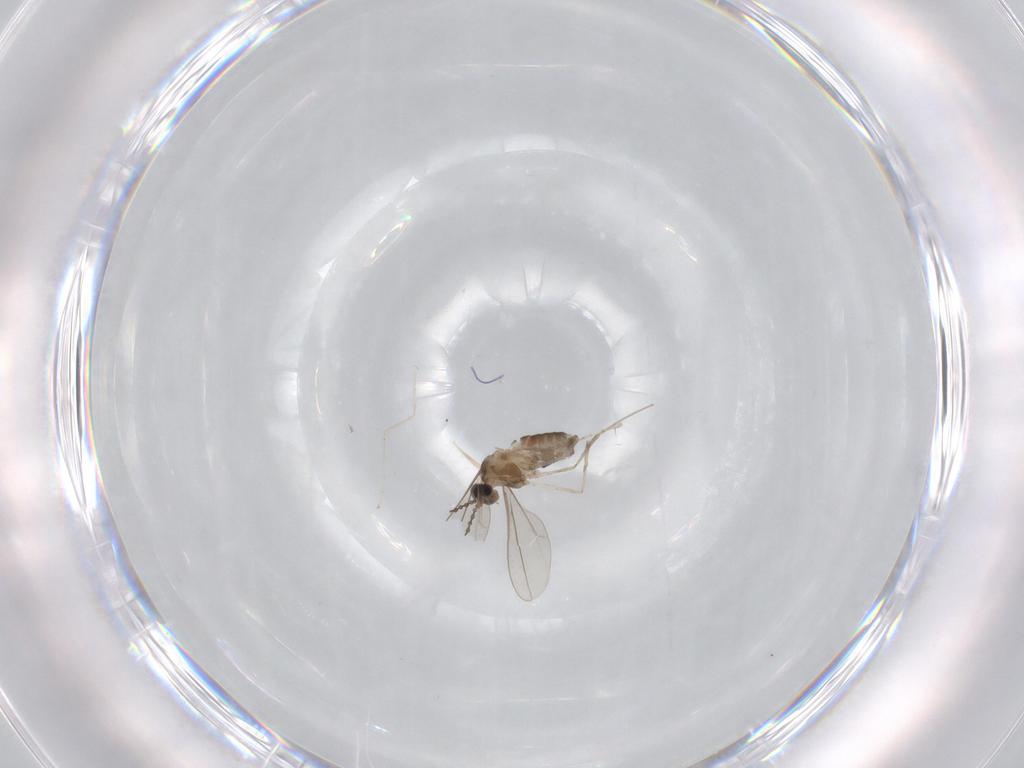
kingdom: Animalia
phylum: Arthropoda
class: Insecta
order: Diptera
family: Cecidomyiidae
